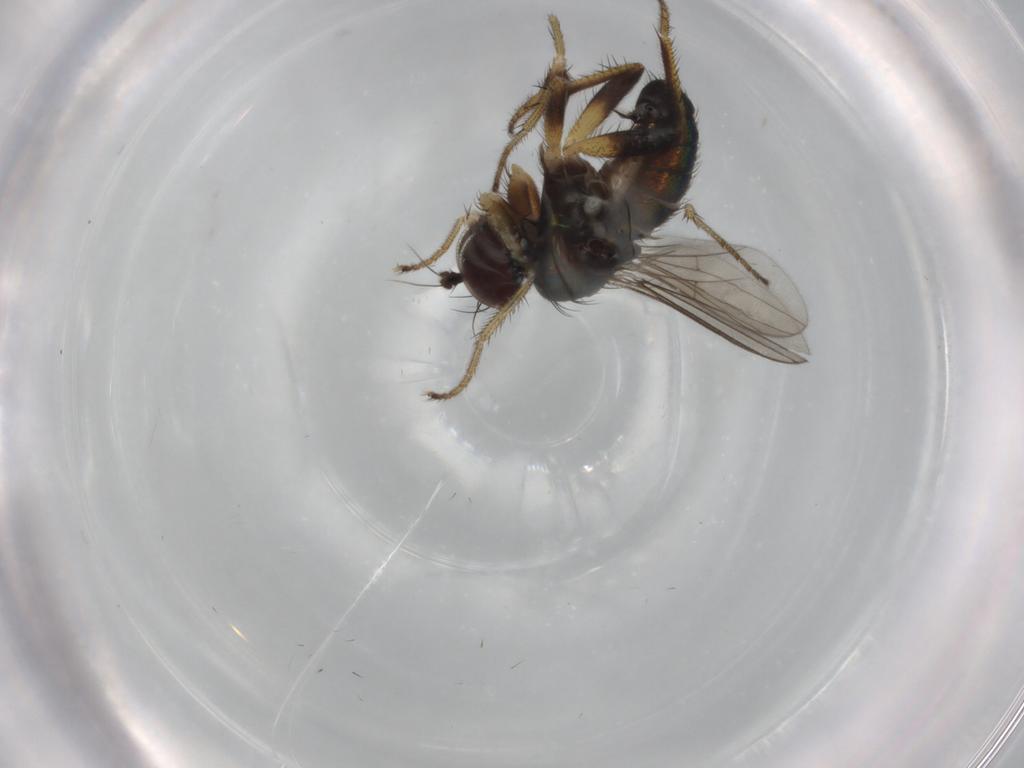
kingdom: Animalia
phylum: Arthropoda
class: Insecta
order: Diptera
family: Dolichopodidae
